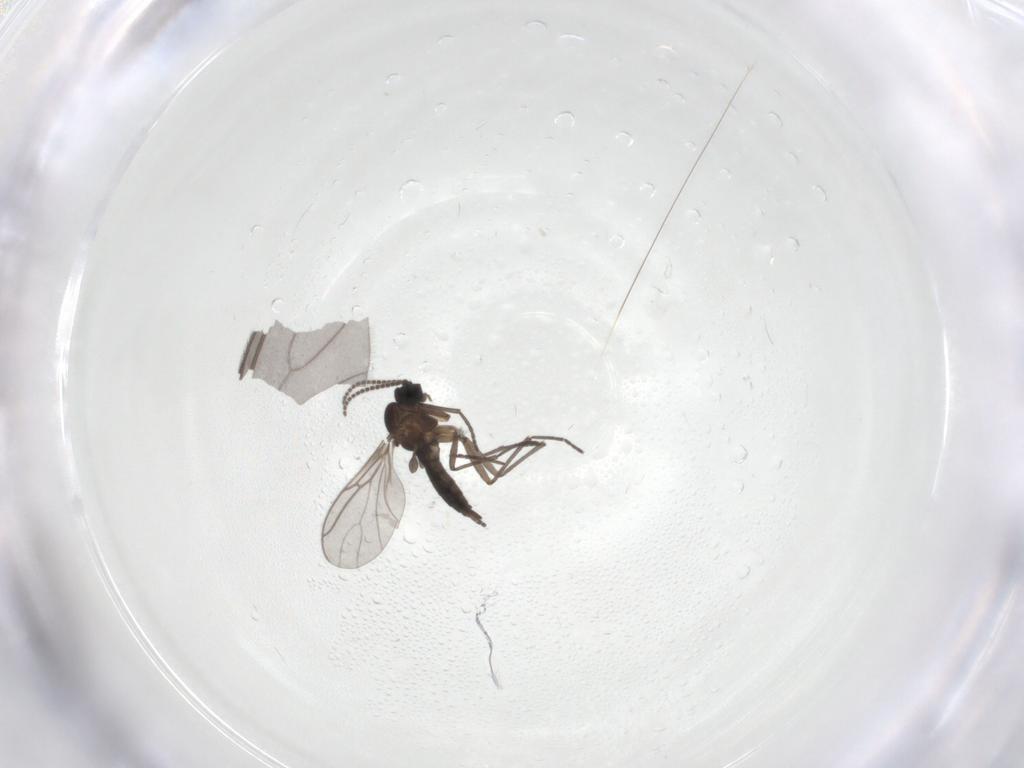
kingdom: Animalia
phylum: Arthropoda
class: Insecta
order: Diptera
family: Sciaridae
